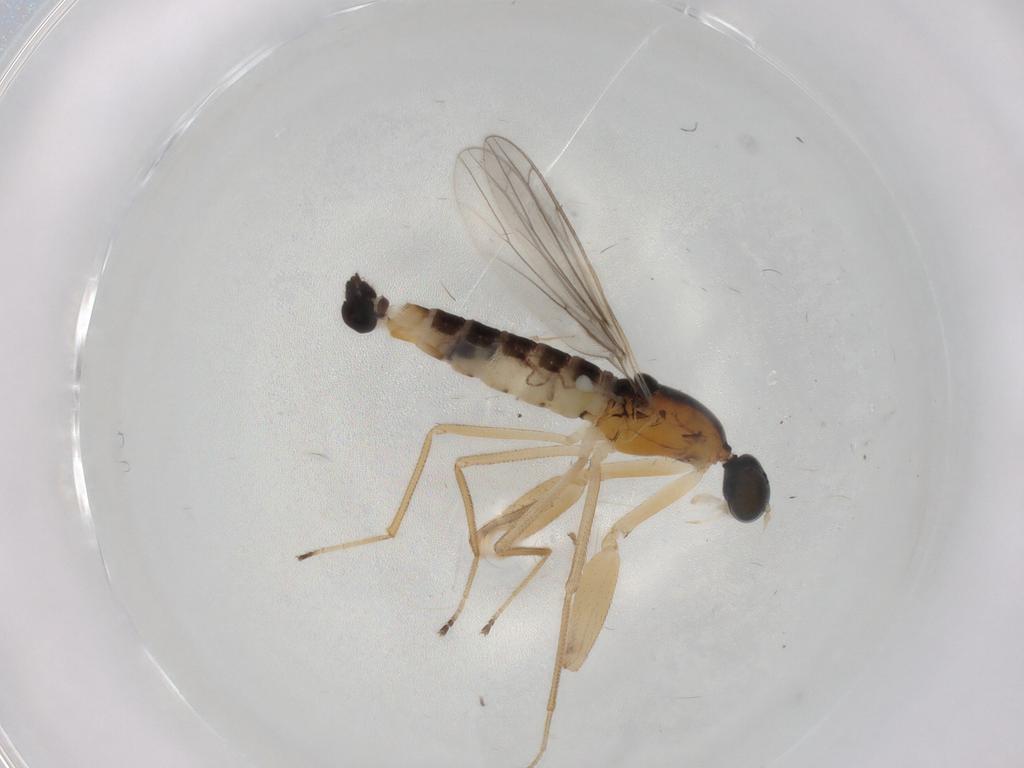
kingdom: Animalia
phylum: Arthropoda
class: Insecta
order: Diptera
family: Empididae
